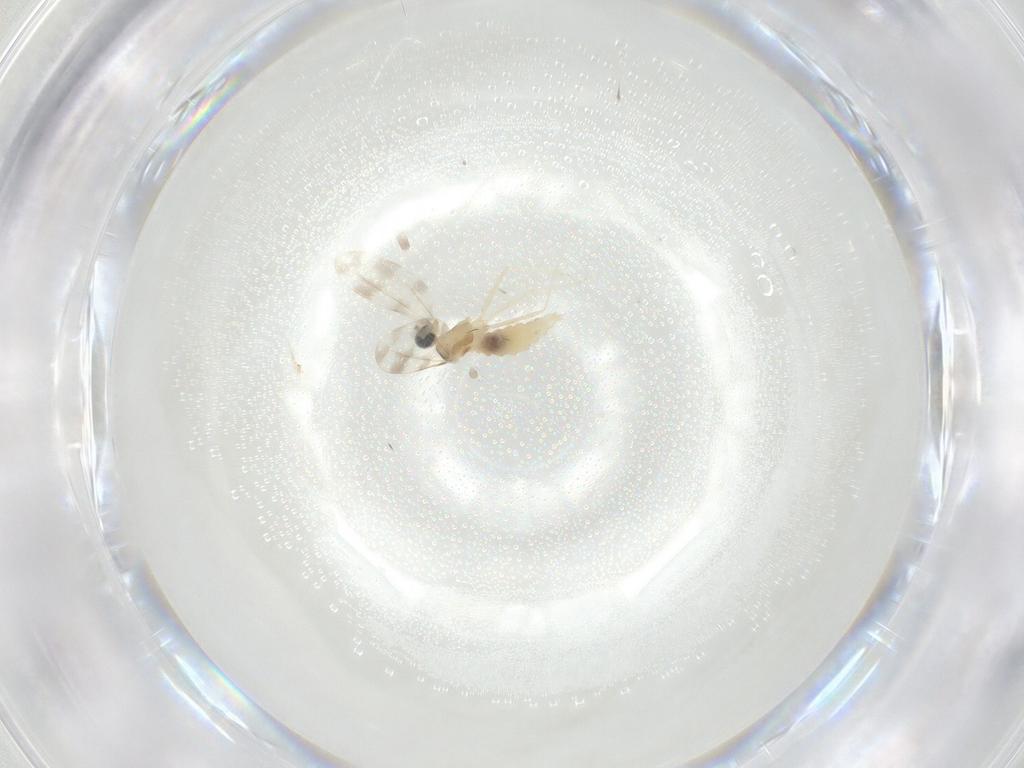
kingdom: Animalia
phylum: Arthropoda
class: Insecta
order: Diptera
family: Cecidomyiidae
